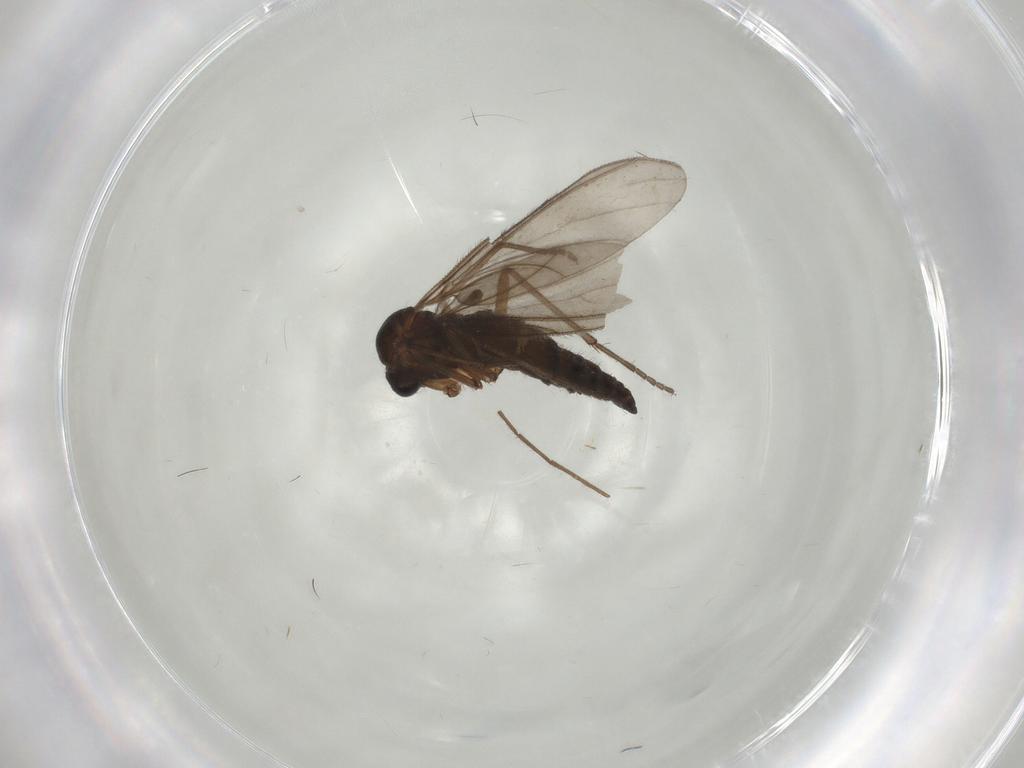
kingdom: Animalia
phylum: Arthropoda
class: Insecta
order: Diptera
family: Sciaridae
